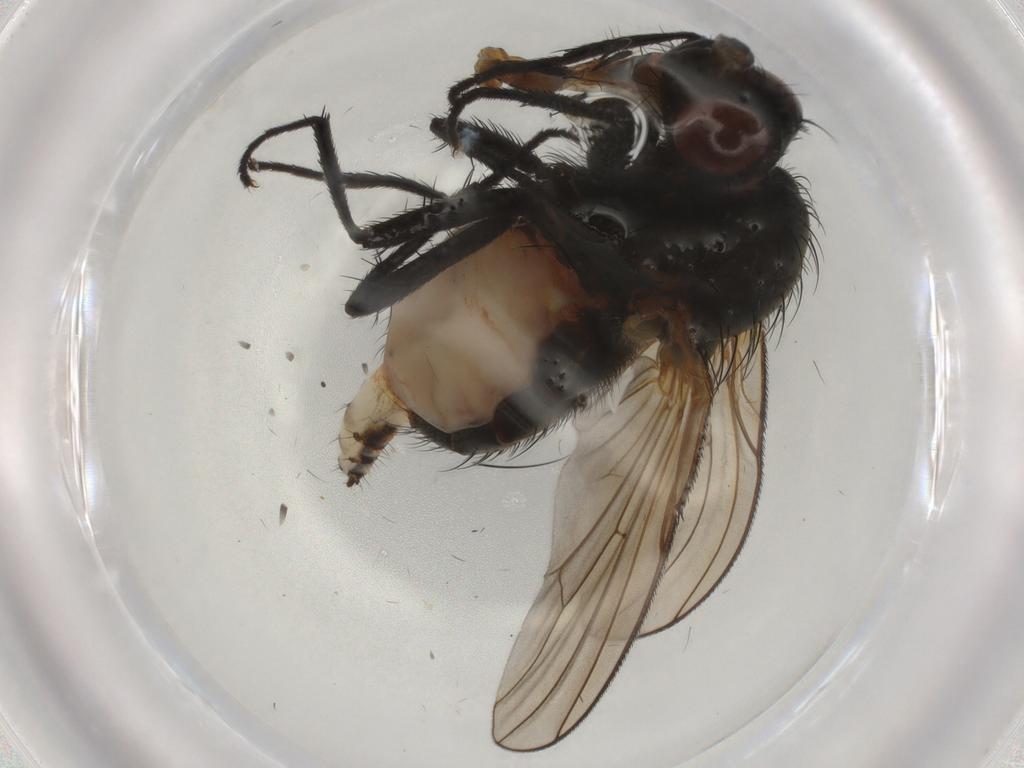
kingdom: Animalia
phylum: Arthropoda
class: Insecta
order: Diptera
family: Anthomyiidae
